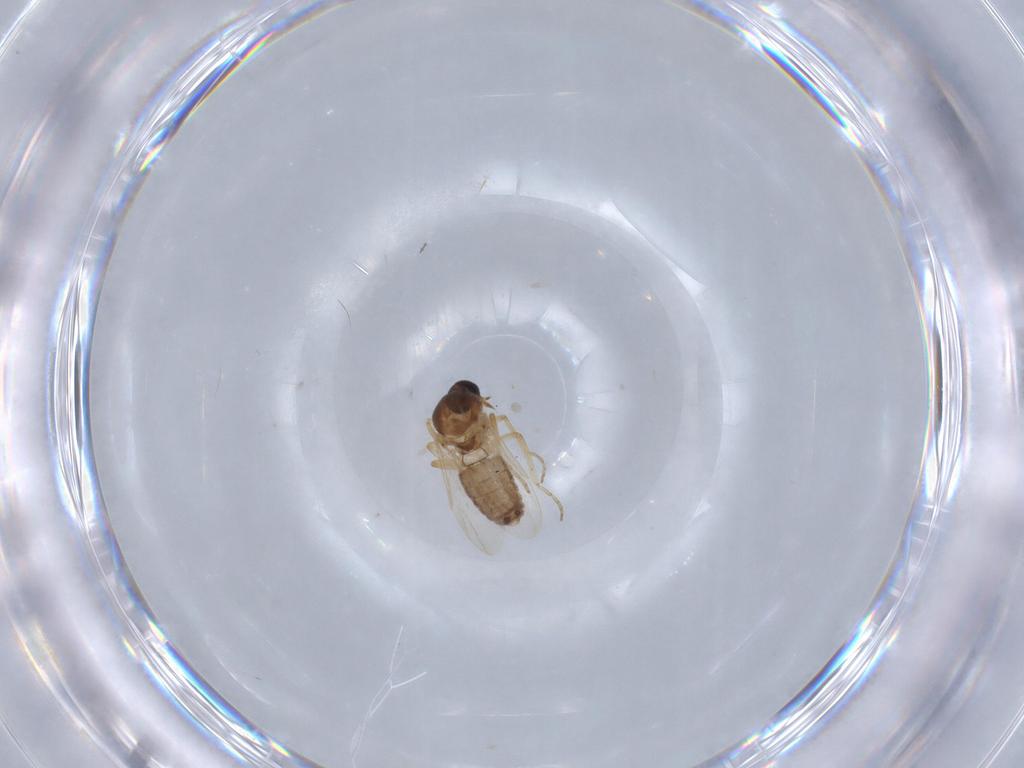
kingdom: Animalia
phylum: Arthropoda
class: Insecta
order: Diptera
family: Ceratopogonidae
